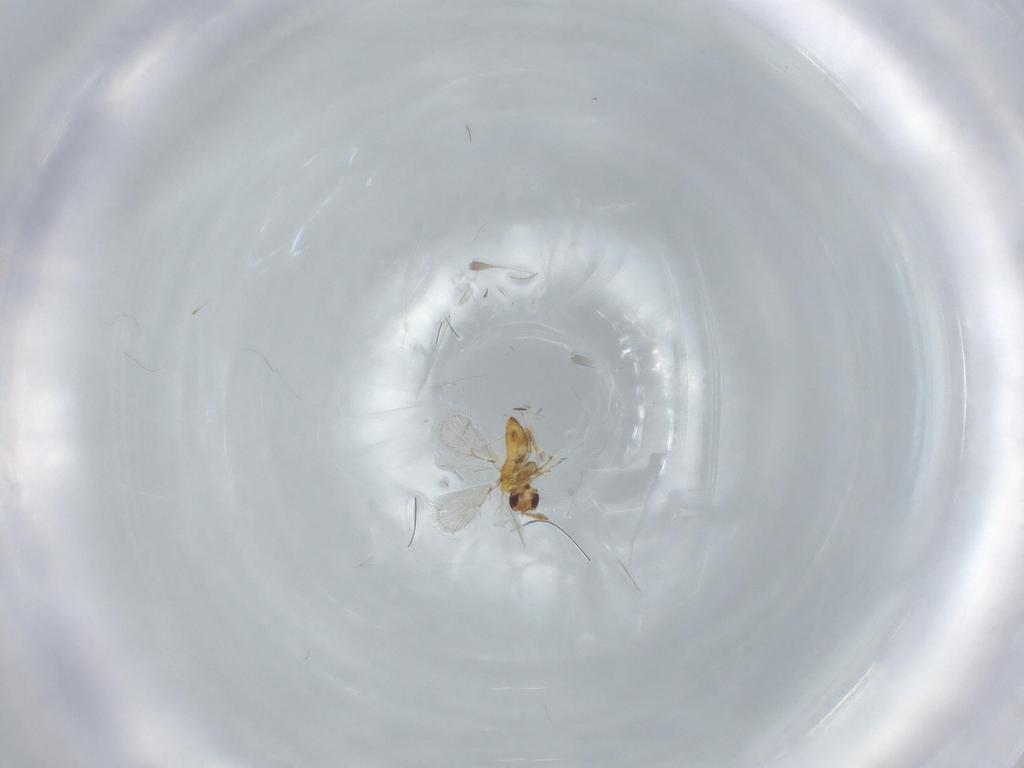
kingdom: Animalia
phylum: Arthropoda
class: Insecta
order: Hymenoptera
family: Trichogrammatidae
